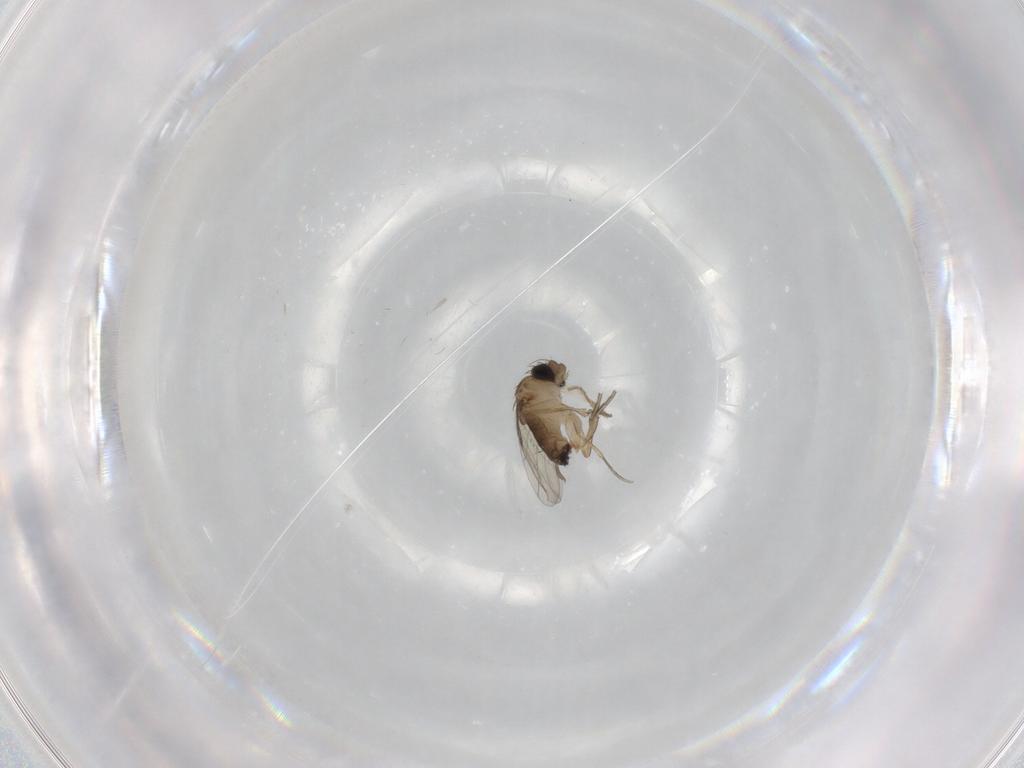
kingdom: Animalia
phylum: Arthropoda
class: Insecta
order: Diptera
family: Phoridae
